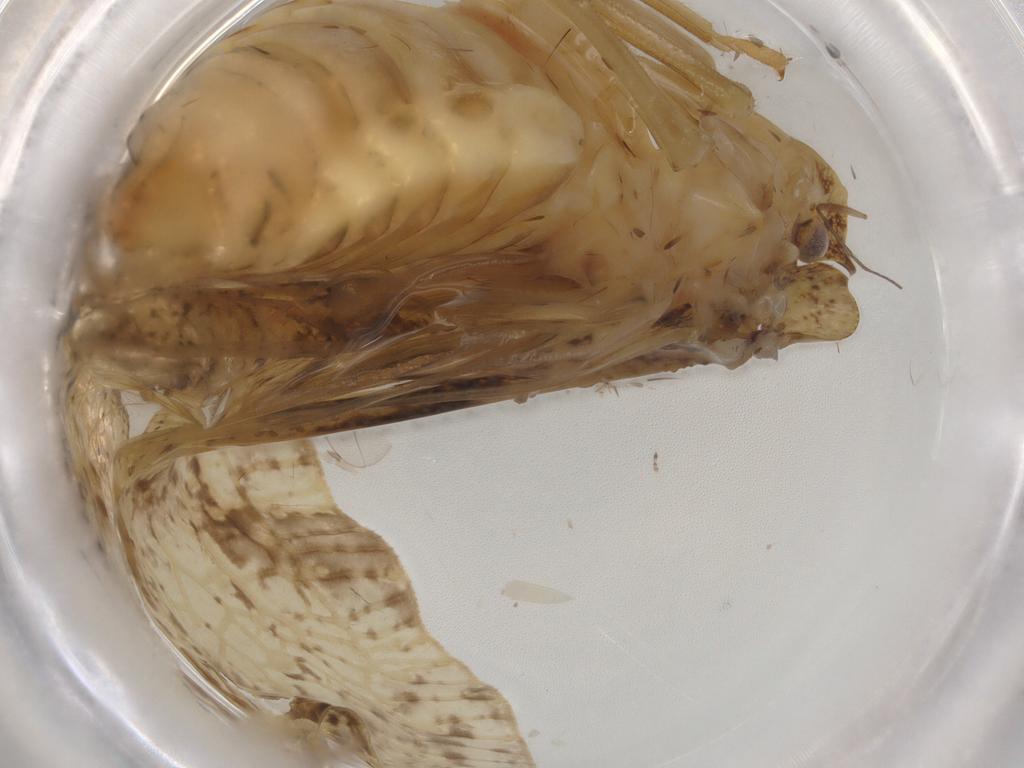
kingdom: Animalia
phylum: Arthropoda
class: Insecta
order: Hemiptera
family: Flatidae
